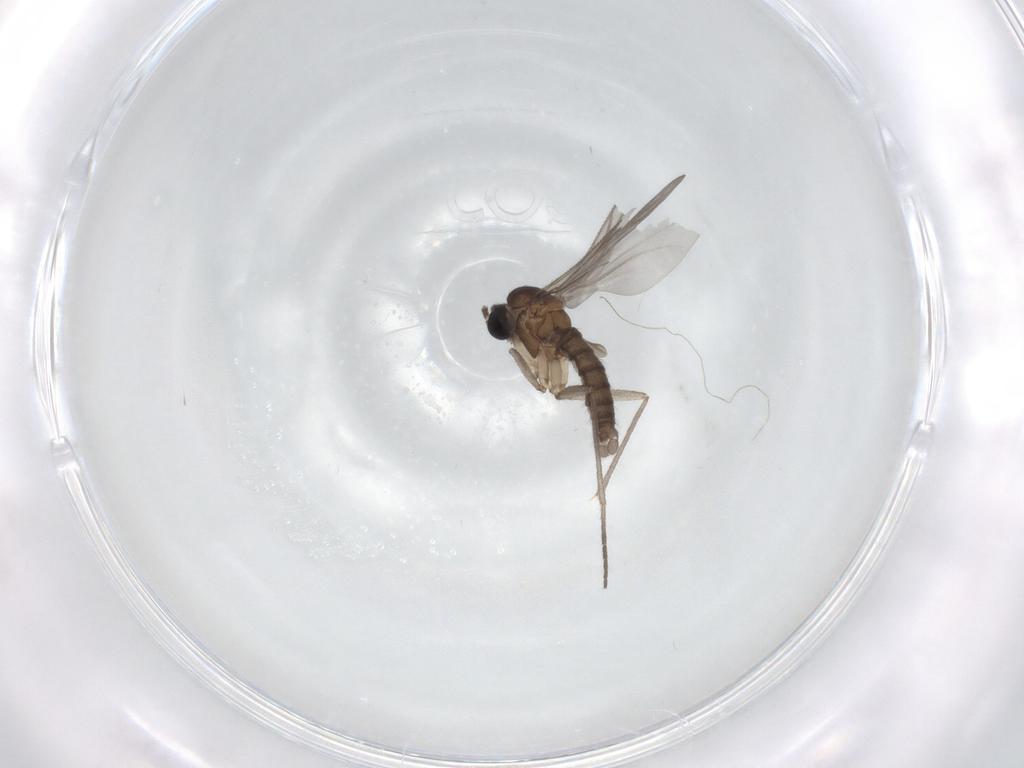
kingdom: Animalia
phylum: Arthropoda
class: Insecta
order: Diptera
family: Sciaridae
